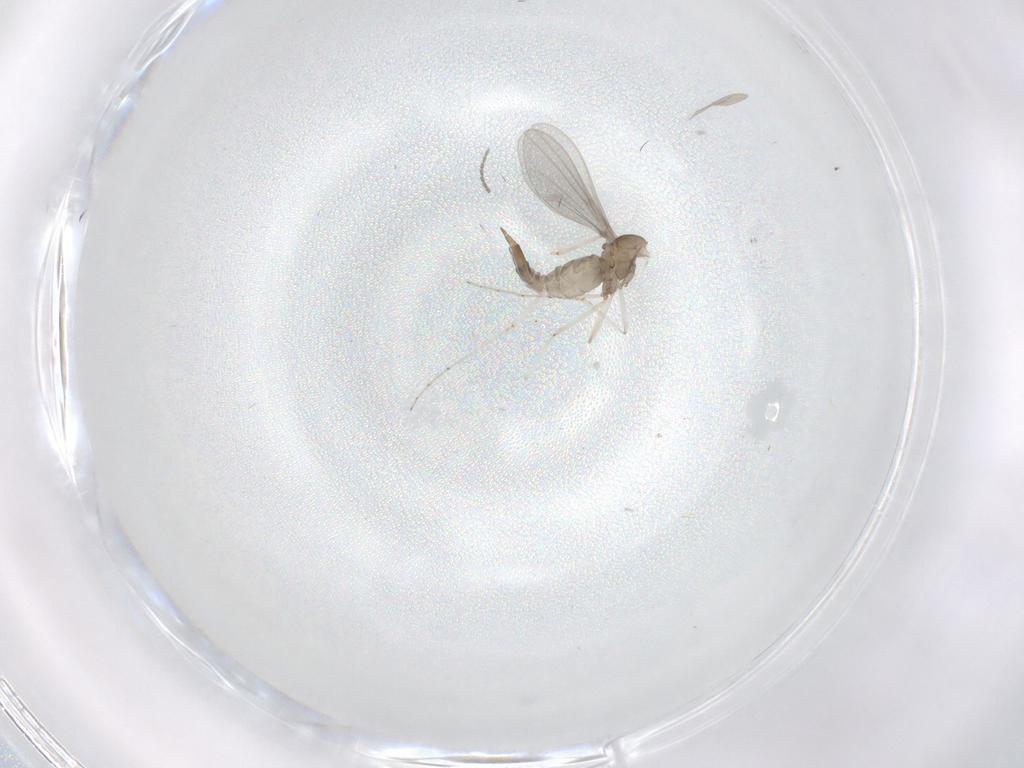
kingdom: Animalia
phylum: Arthropoda
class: Insecta
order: Diptera
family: Cecidomyiidae
